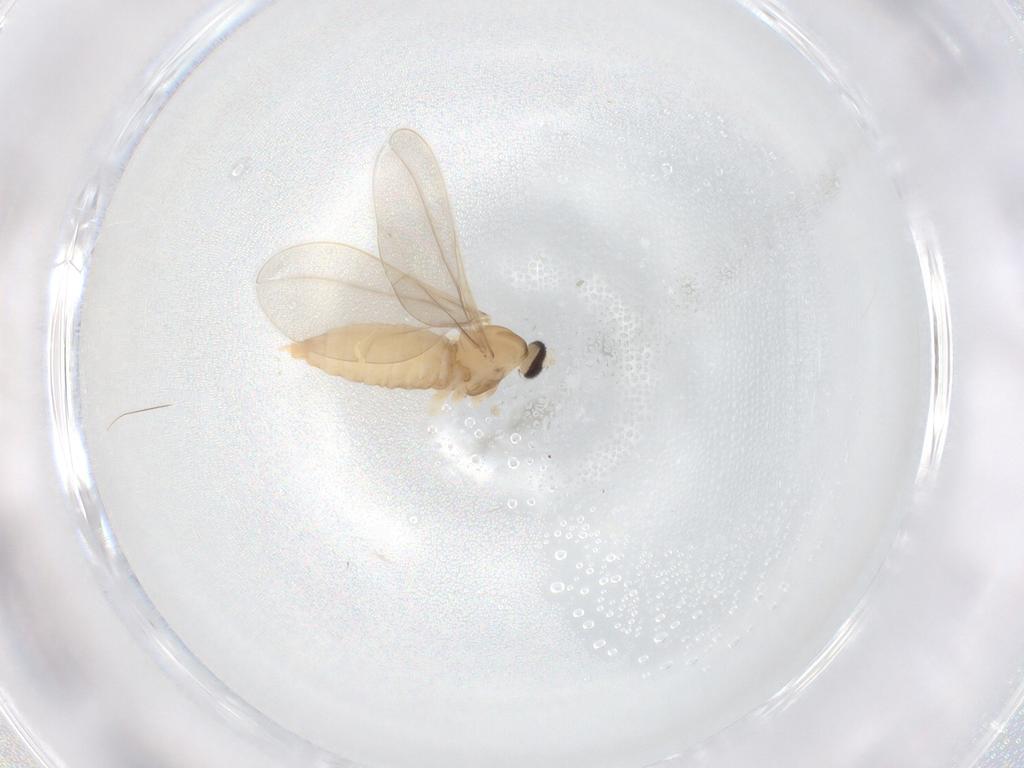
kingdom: Animalia
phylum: Arthropoda
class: Insecta
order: Diptera
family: Cecidomyiidae
